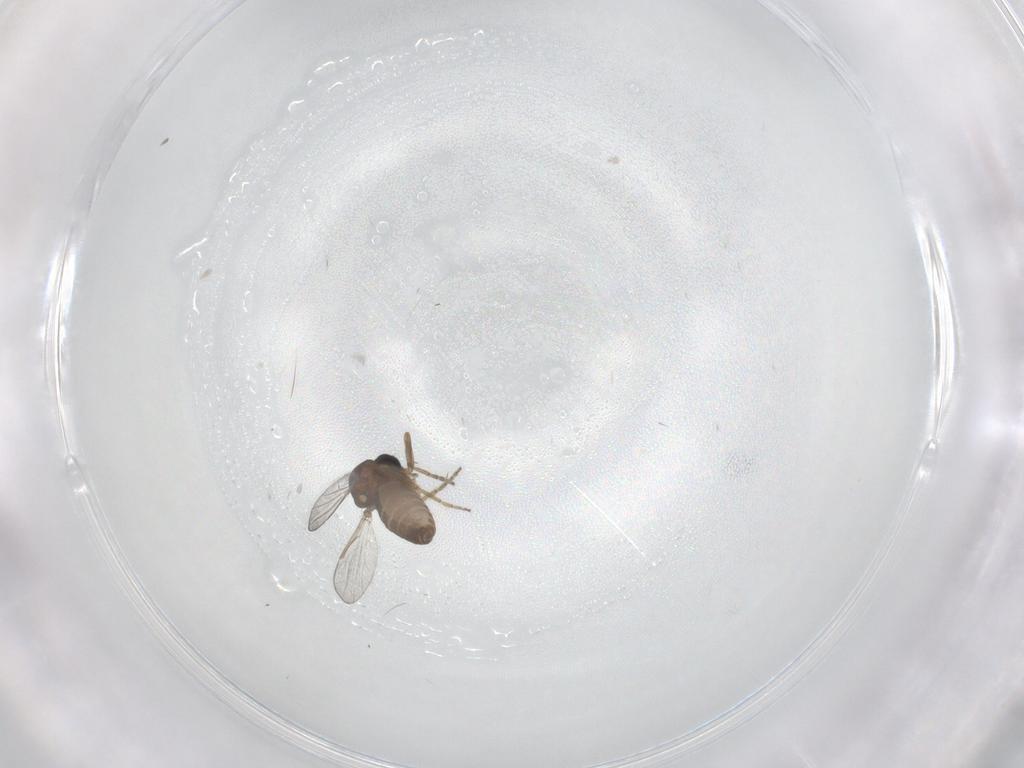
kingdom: Animalia
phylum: Arthropoda
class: Insecta
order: Diptera
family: Ceratopogonidae
